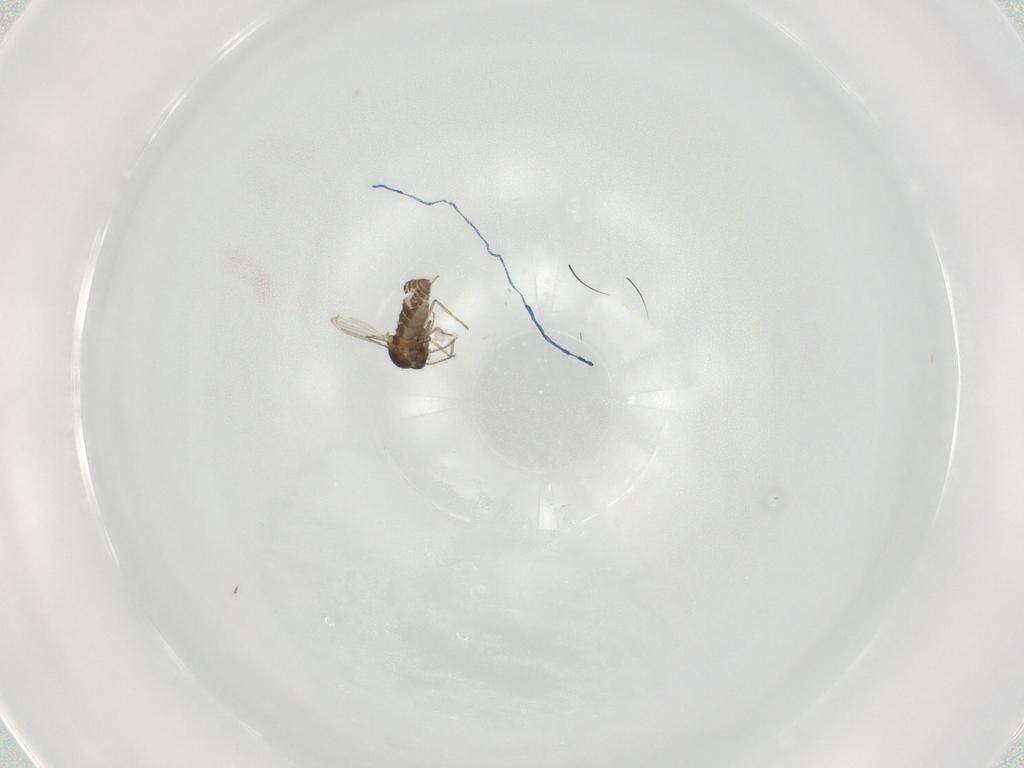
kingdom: Animalia
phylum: Arthropoda
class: Insecta
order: Diptera
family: Ceratopogonidae
